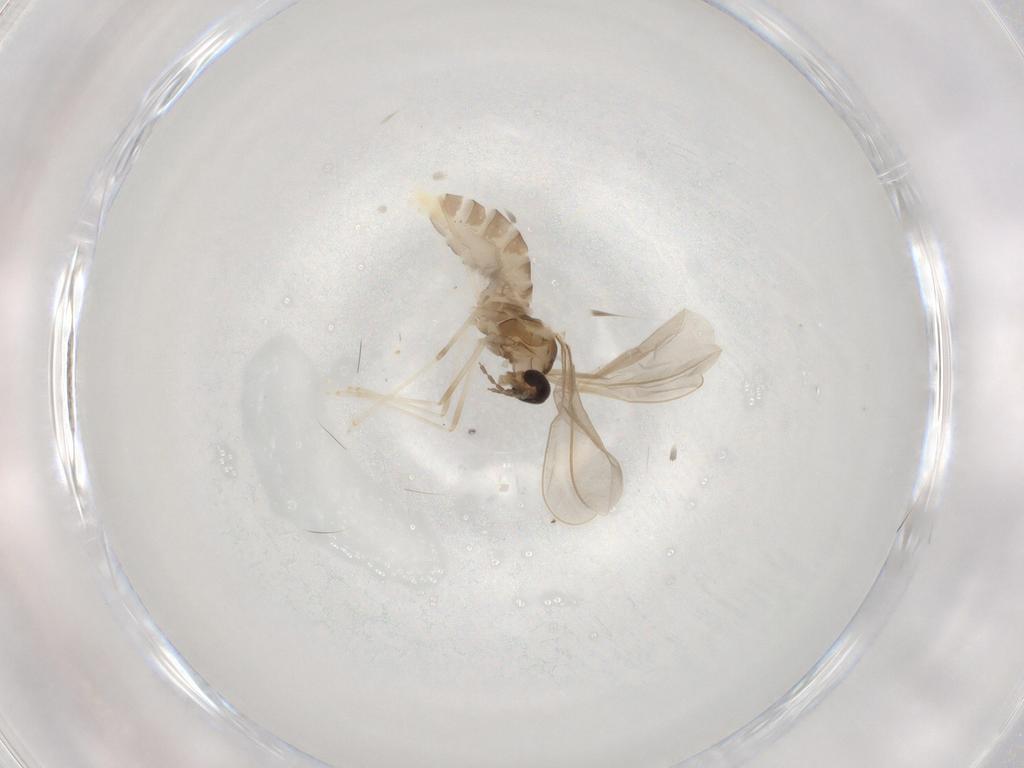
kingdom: Animalia
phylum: Arthropoda
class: Insecta
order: Diptera
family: Cecidomyiidae
